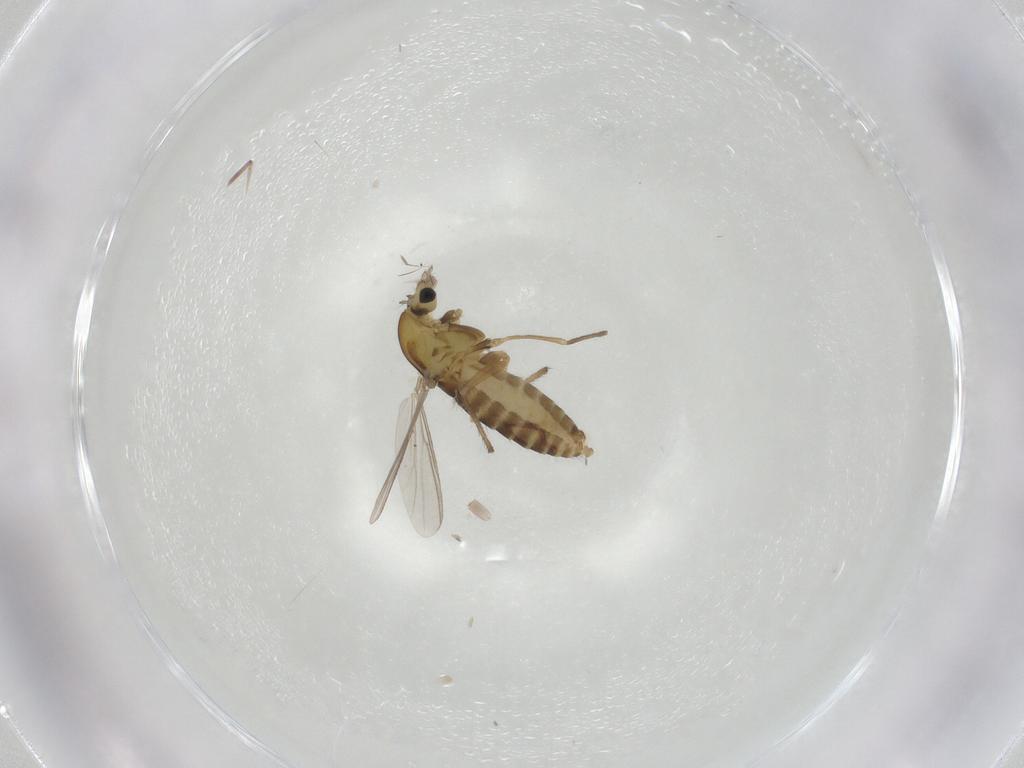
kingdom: Animalia
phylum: Arthropoda
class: Insecta
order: Diptera
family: Chironomidae
